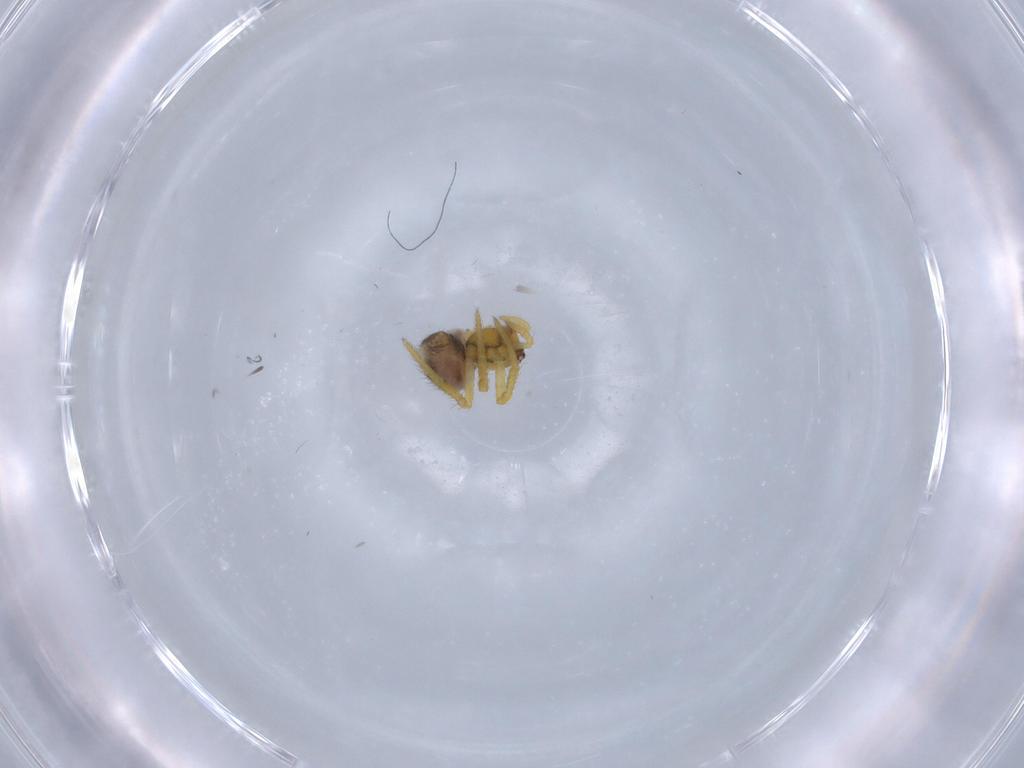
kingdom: Animalia
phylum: Arthropoda
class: Arachnida
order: Araneae
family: Theridiidae
